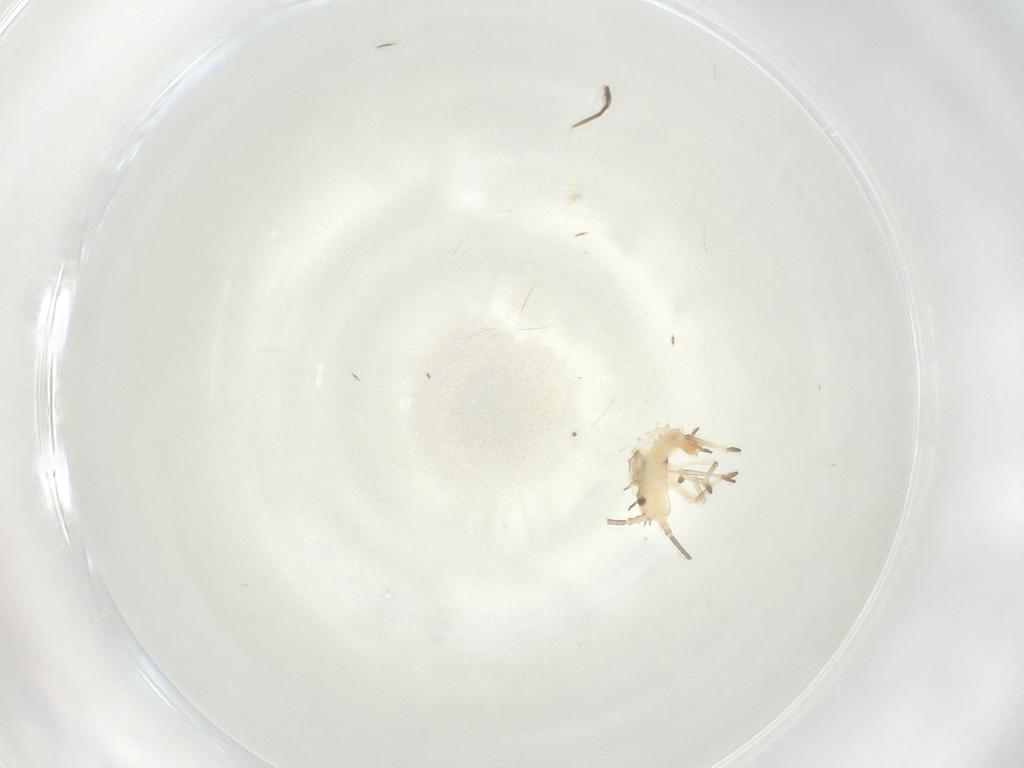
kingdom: Animalia
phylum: Arthropoda
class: Insecta
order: Hemiptera
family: Tingidae
